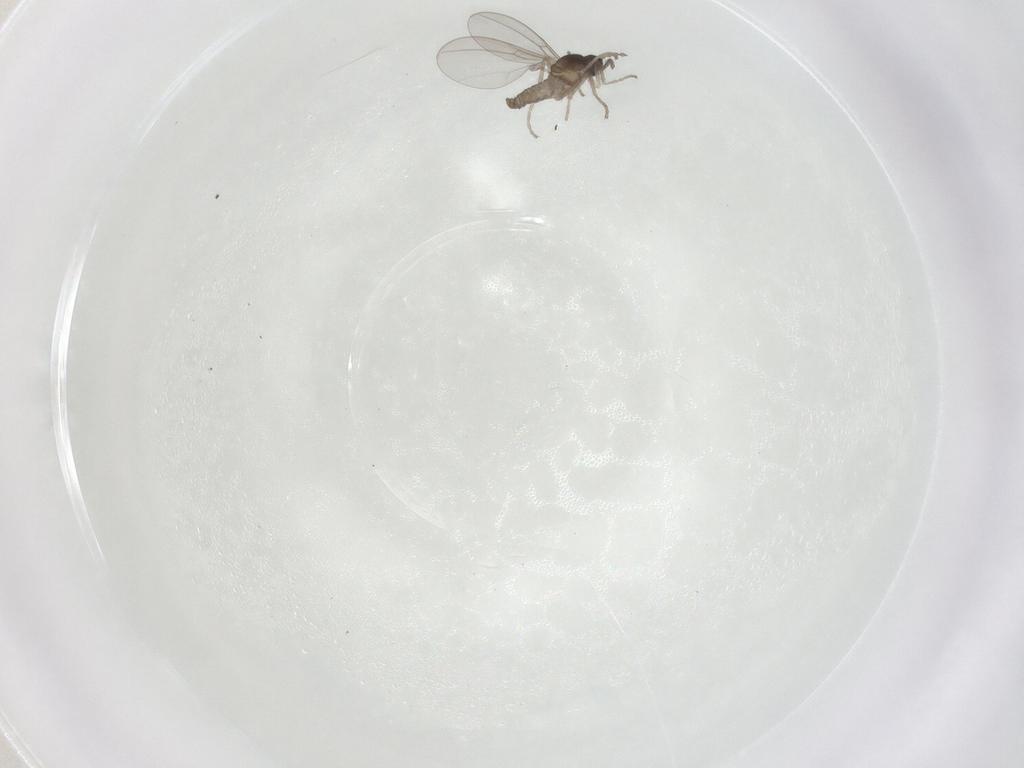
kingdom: Animalia
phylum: Arthropoda
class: Insecta
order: Diptera
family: Cecidomyiidae
